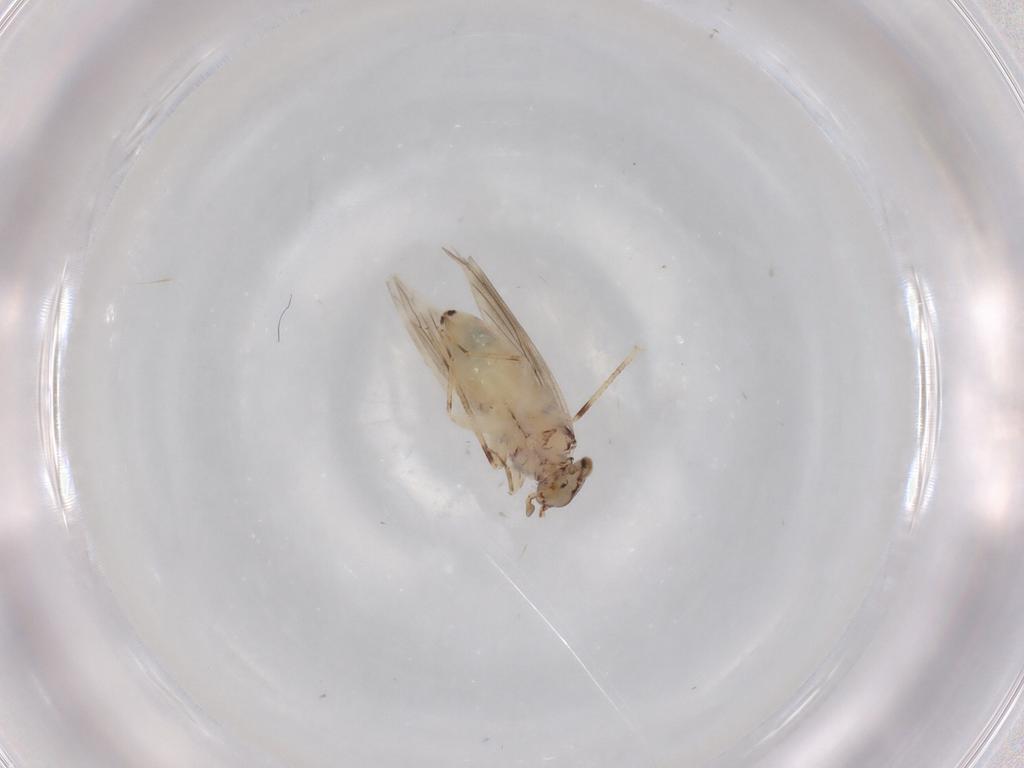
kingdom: Animalia
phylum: Arthropoda
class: Insecta
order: Psocodea
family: Lepidopsocidae
